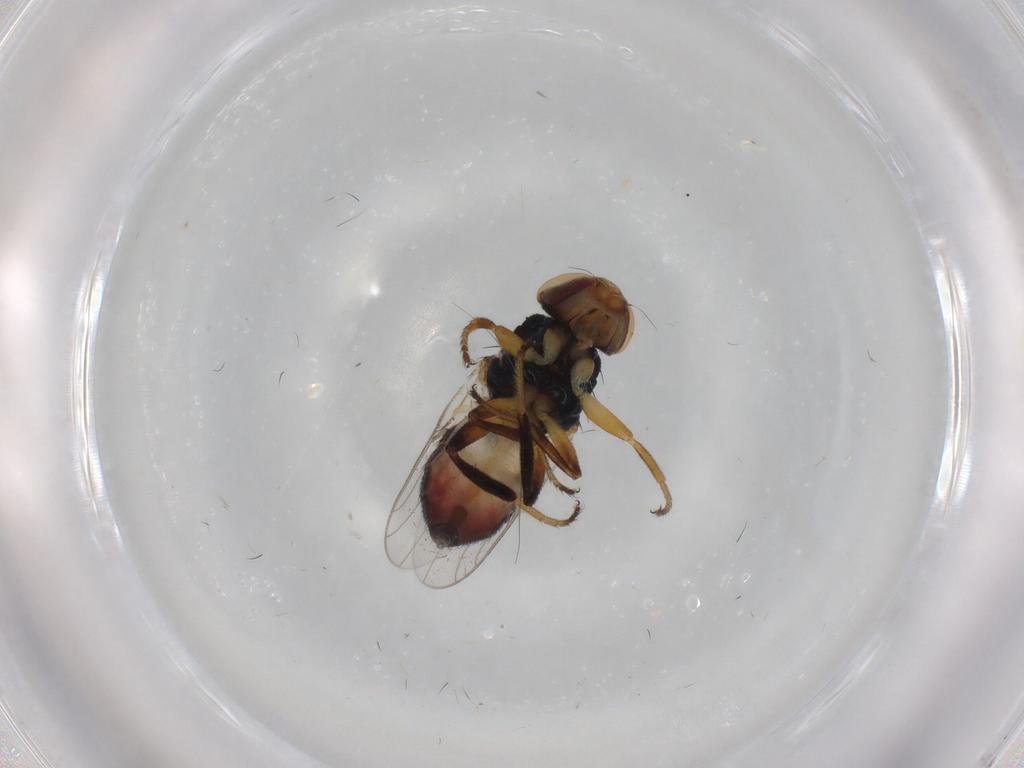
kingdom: Animalia
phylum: Arthropoda
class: Insecta
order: Diptera
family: Chloropidae
